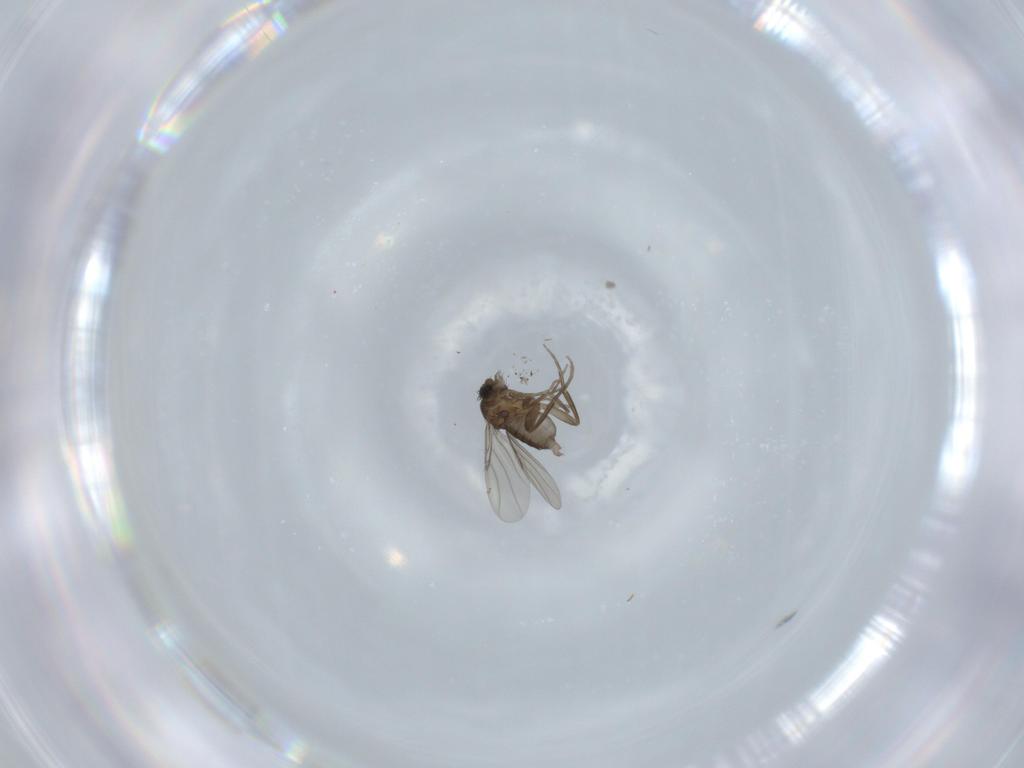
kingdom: Animalia
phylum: Arthropoda
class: Insecta
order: Diptera
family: Phoridae
